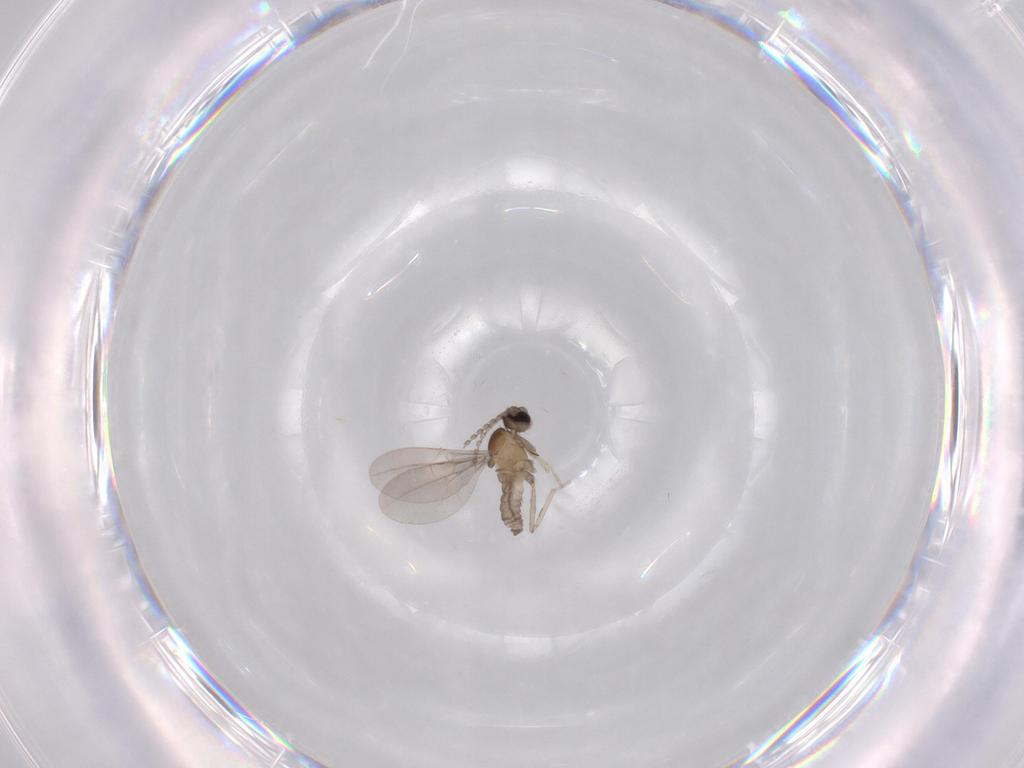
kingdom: Animalia
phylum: Arthropoda
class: Insecta
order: Diptera
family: Cecidomyiidae
